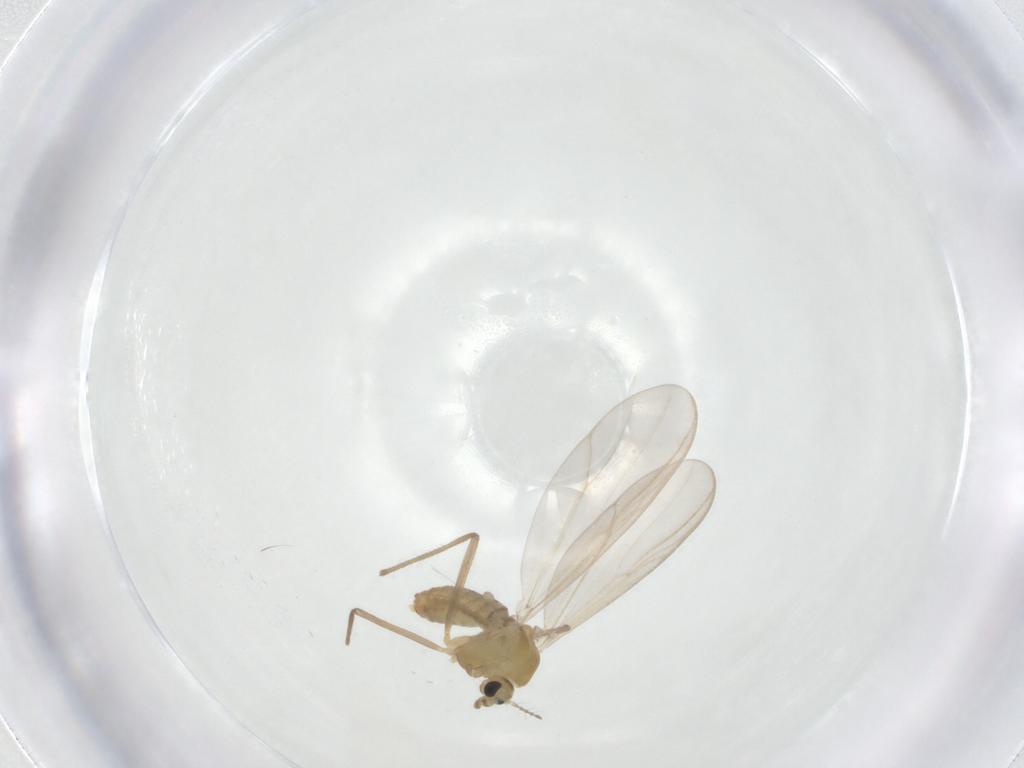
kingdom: Animalia
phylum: Arthropoda
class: Insecta
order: Diptera
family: Chironomidae
